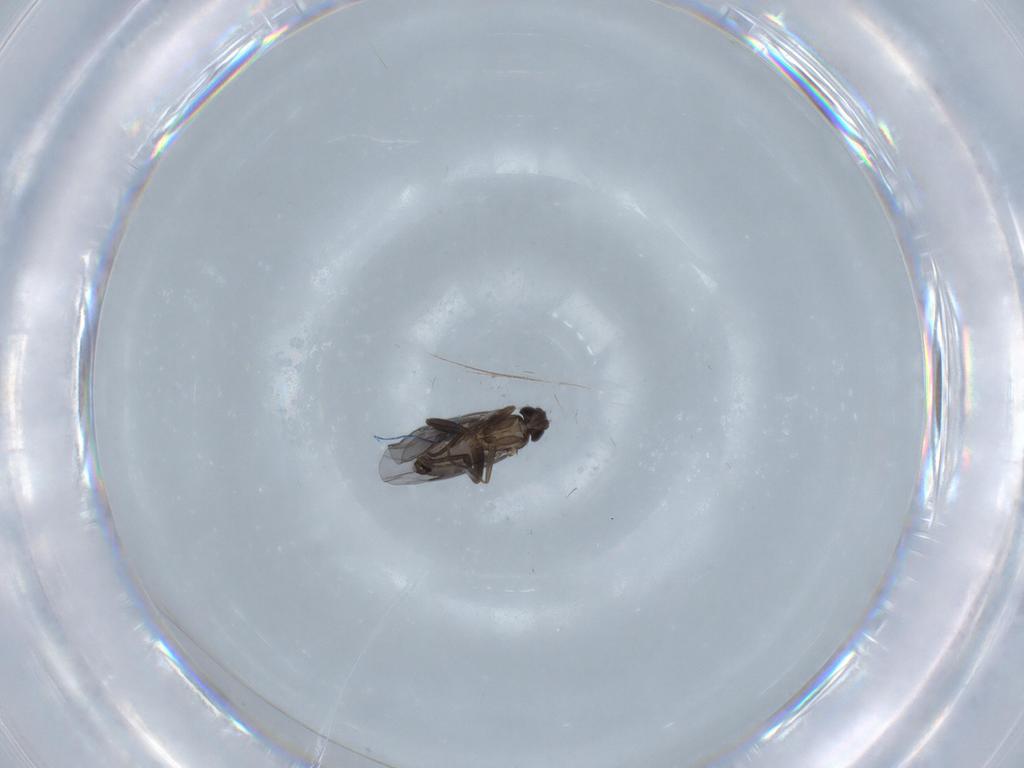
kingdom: Animalia
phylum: Arthropoda
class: Insecta
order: Diptera
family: Phoridae
